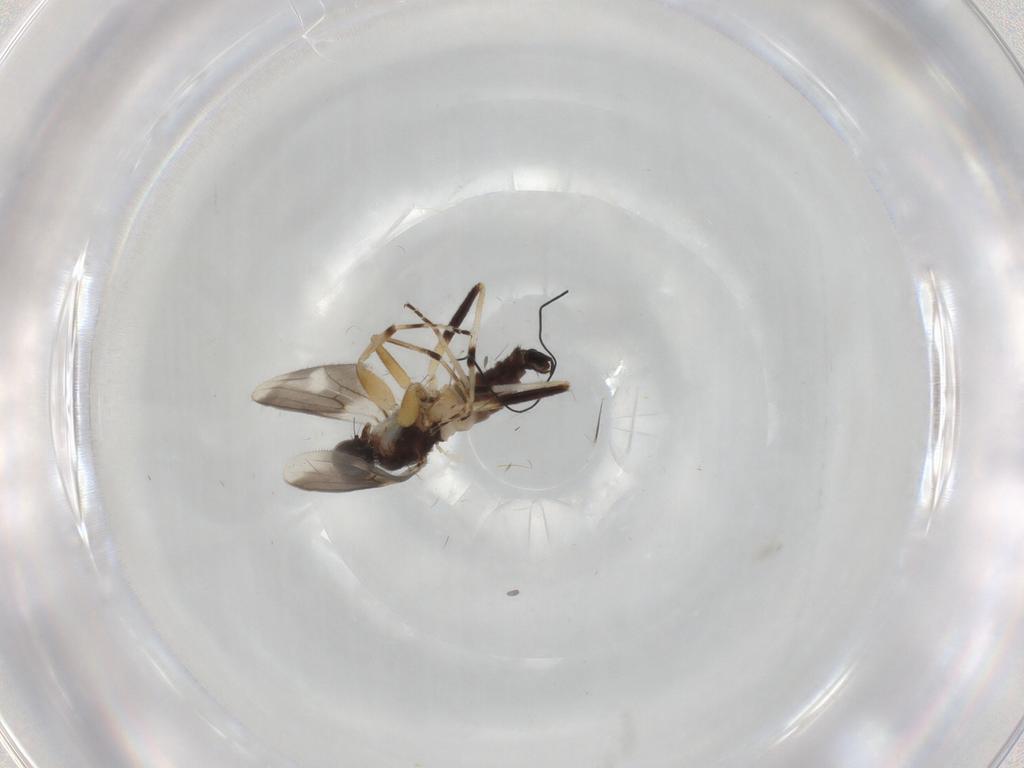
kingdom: Animalia
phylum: Arthropoda
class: Insecta
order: Diptera
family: Hybotidae
